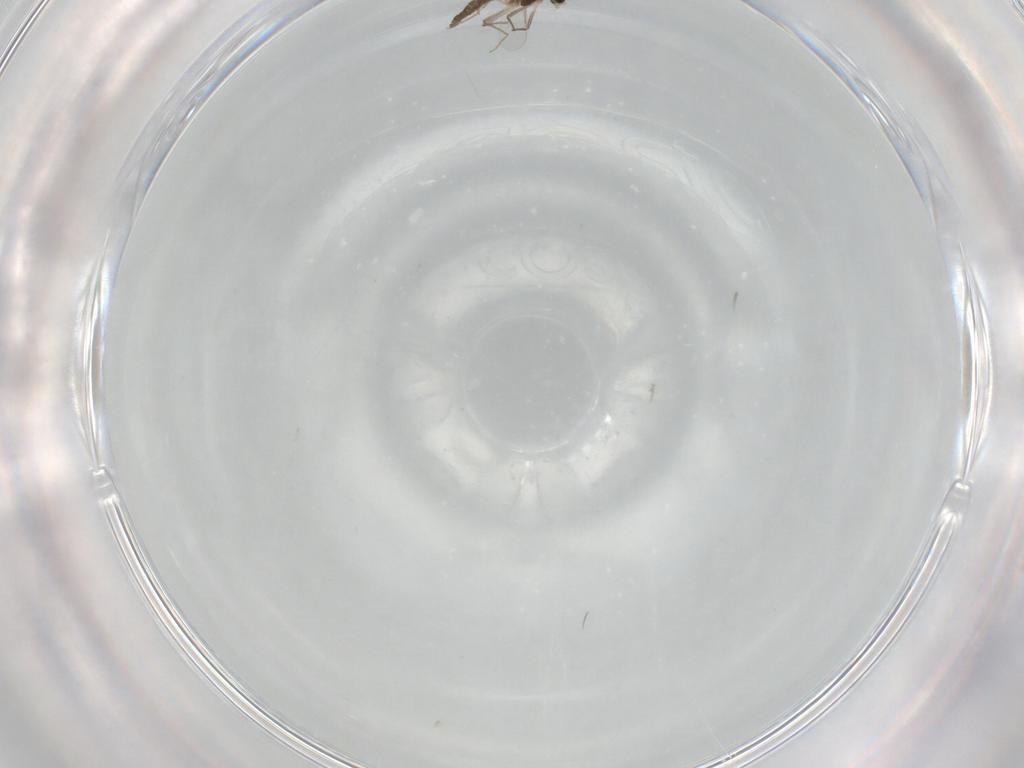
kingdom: Animalia
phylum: Arthropoda
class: Insecta
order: Diptera
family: Chironomidae
